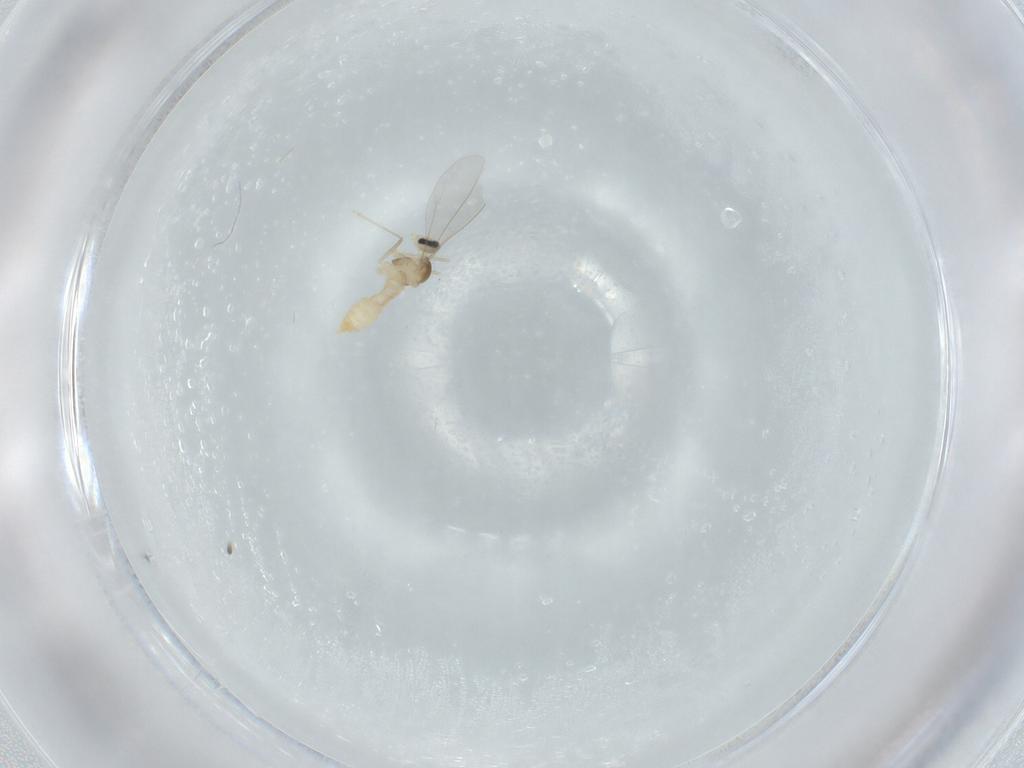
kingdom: Animalia
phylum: Arthropoda
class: Insecta
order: Diptera
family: Cecidomyiidae
